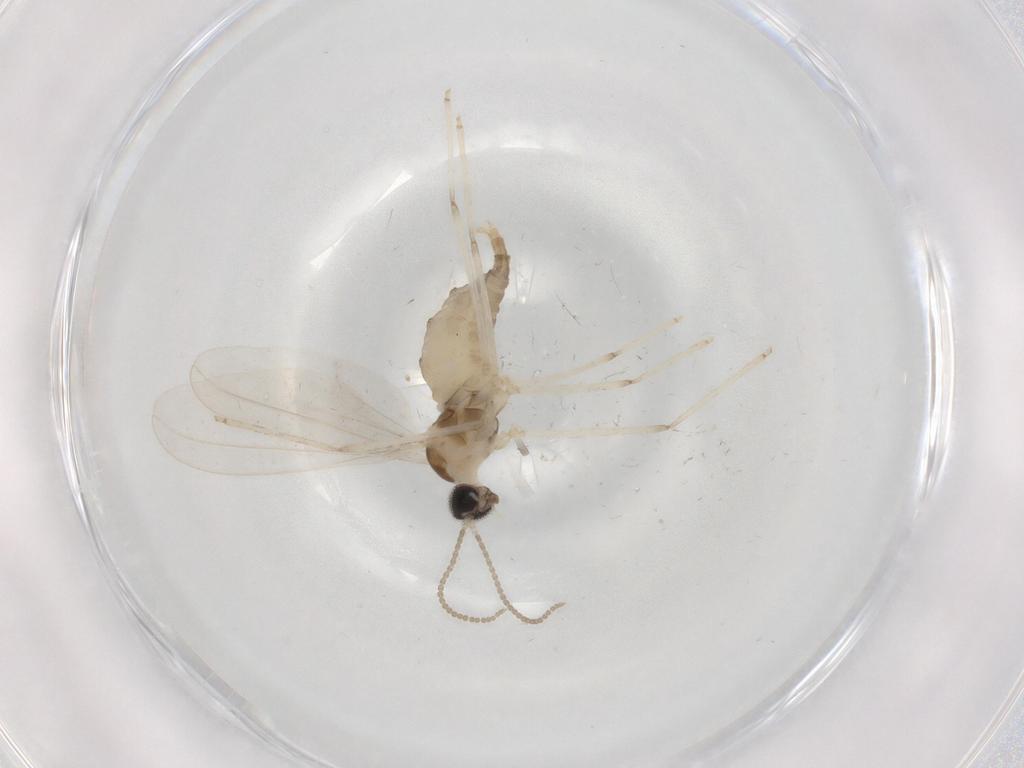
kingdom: Animalia
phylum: Arthropoda
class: Insecta
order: Diptera
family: Cecidomyiidae
